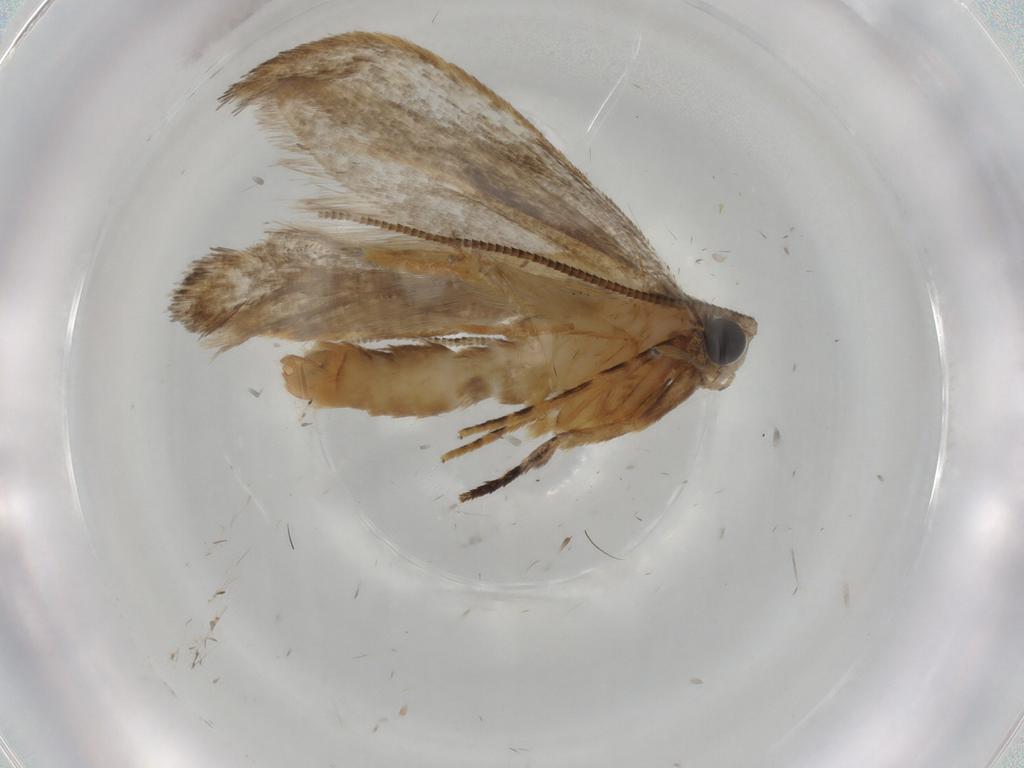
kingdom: Animalia
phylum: Arthropoda
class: Insecta
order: Lepidoptera
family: Tineidae
